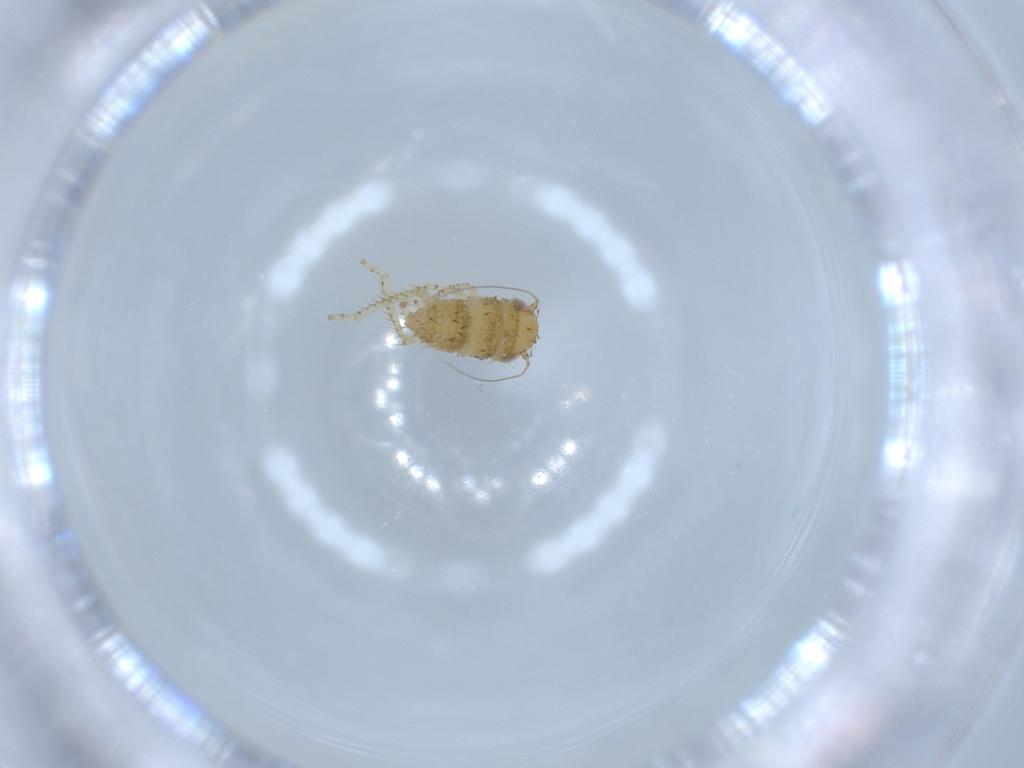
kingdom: Animalia
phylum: Arthropoda
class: Insecta
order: Hemiptera
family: Cicadellidae
